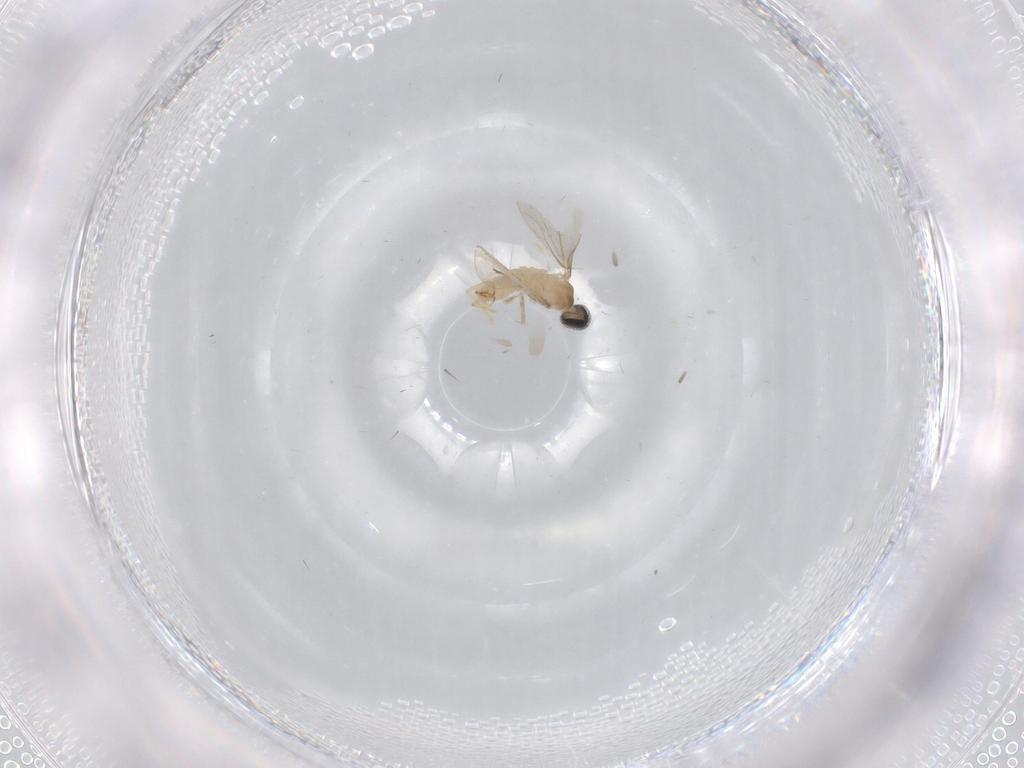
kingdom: Animalia
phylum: Arthropoda
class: Insecta
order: Diptera
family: Cecidomyiidae
